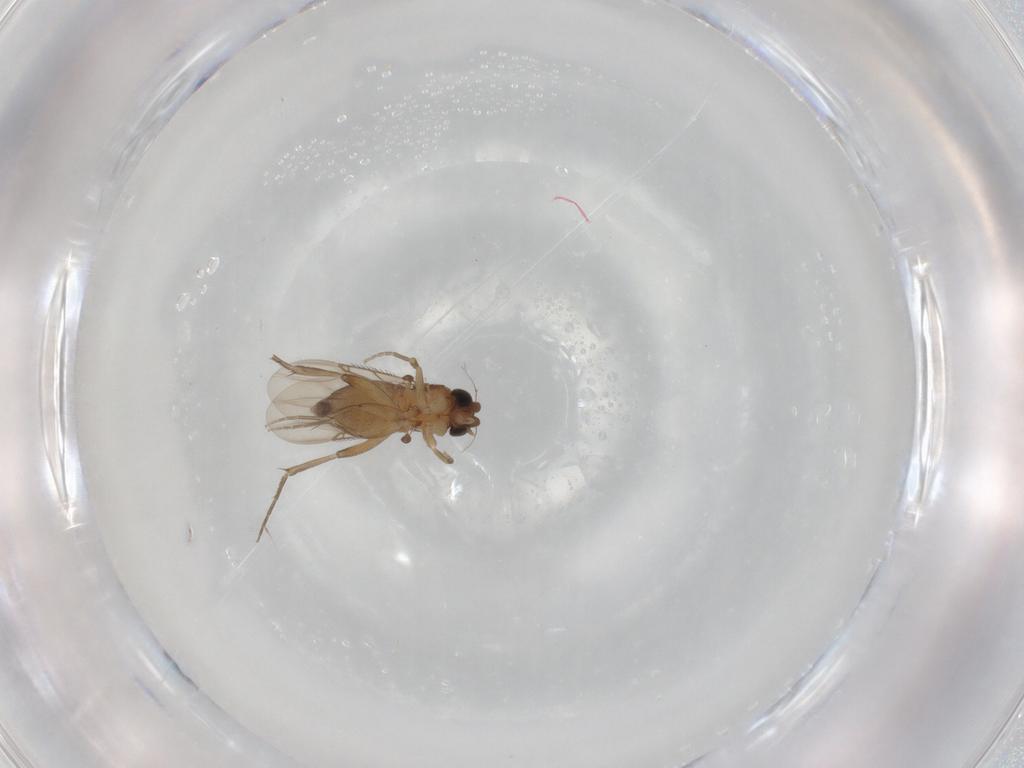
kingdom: Animalia
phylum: Arthropoda
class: Insecta
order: Diptera
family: Phoridae
